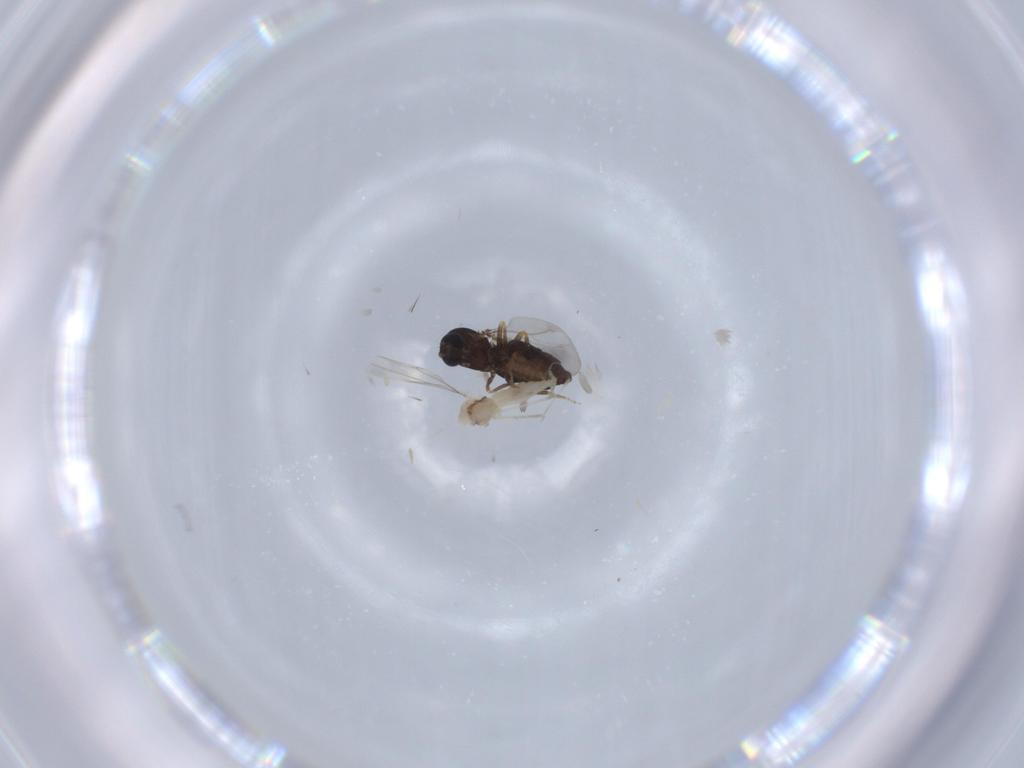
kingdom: Animalia
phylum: Arthropoda
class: Insecta
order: Diptera
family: Cecidomyiidae
